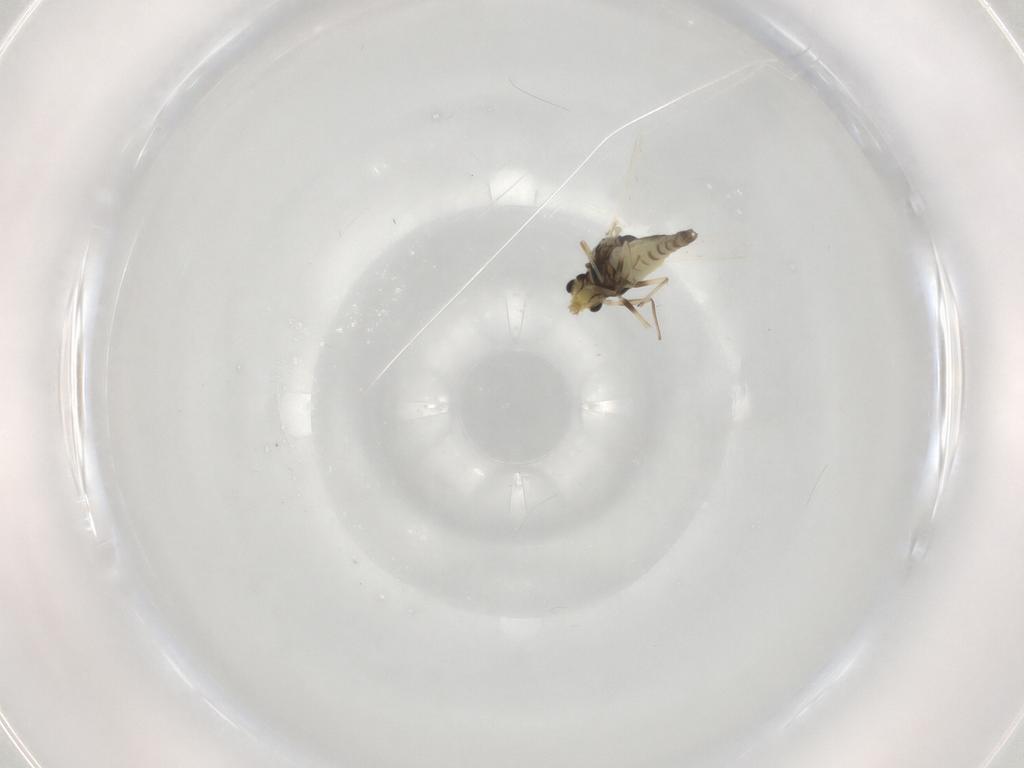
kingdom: Animalia
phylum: Arthropoda
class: Insecta
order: Diptera
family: Chironomidae
